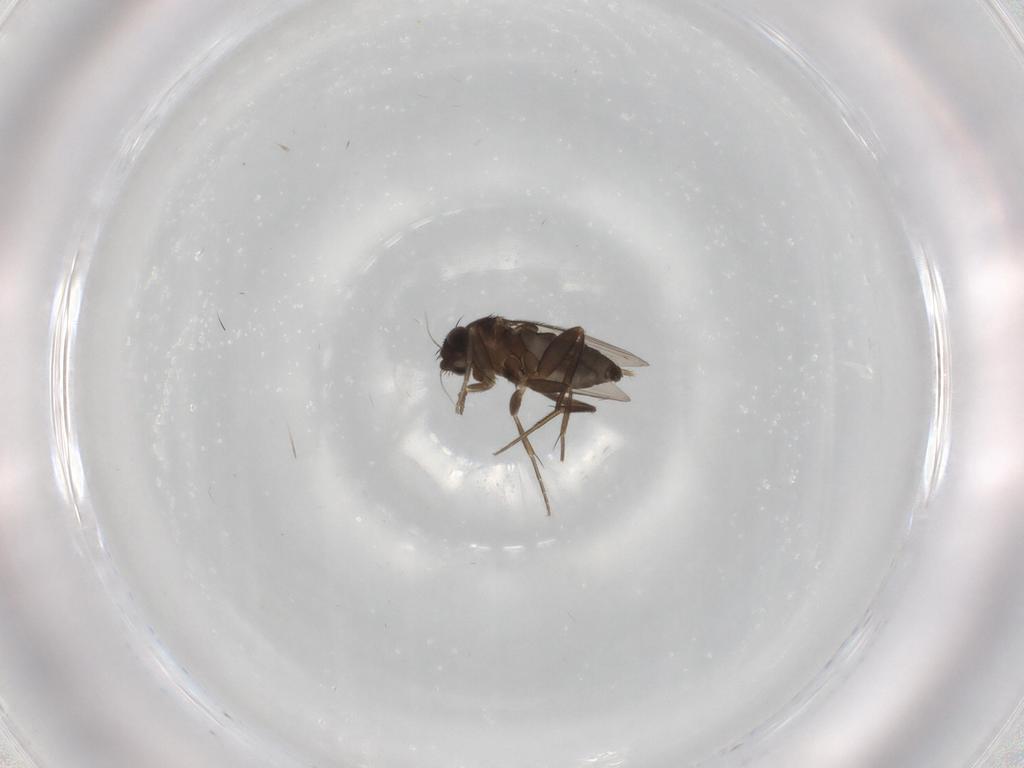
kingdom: Animalia
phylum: Arthropoda
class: Insecta
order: Diptera
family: Phoridae
